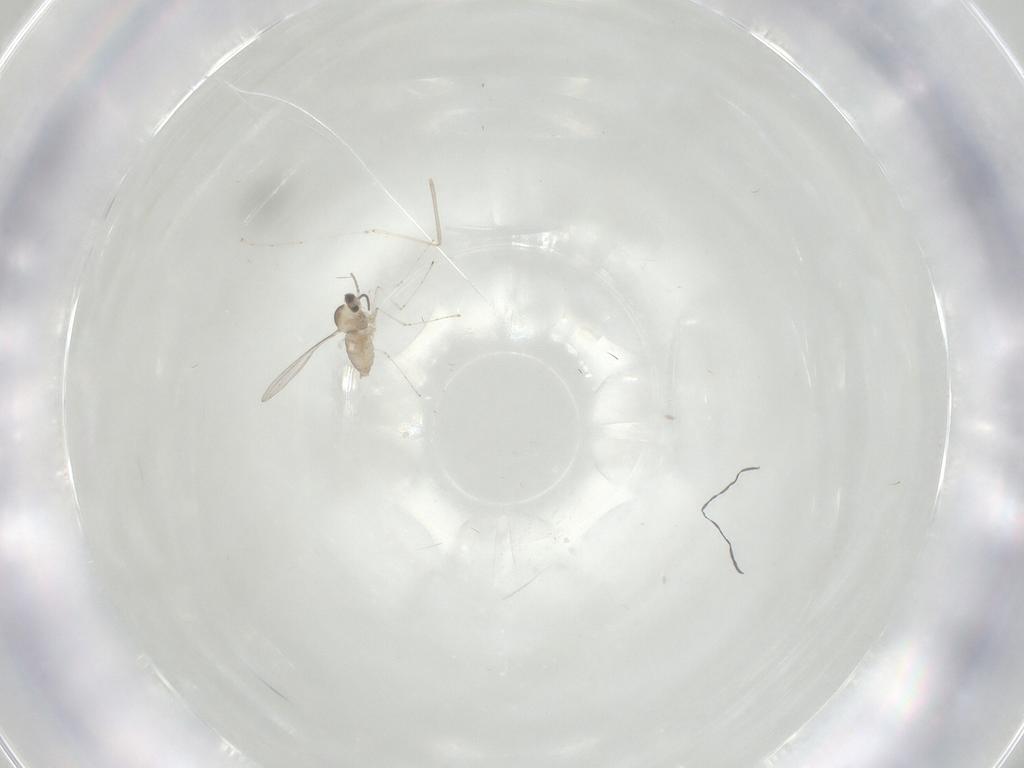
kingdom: Animalia
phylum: Arthropoda
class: Insecta
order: Diptera
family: Cecidomyiidae
